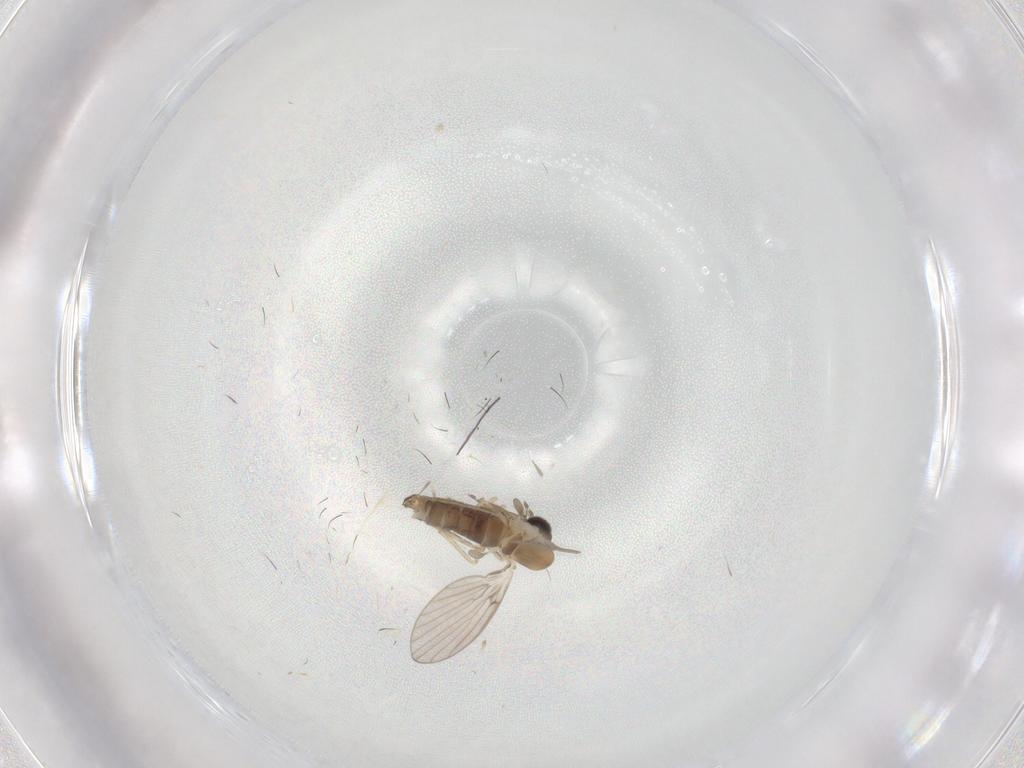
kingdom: Animalia
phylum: Arthropoda
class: Insecta
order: Diptera
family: Psychodidae
